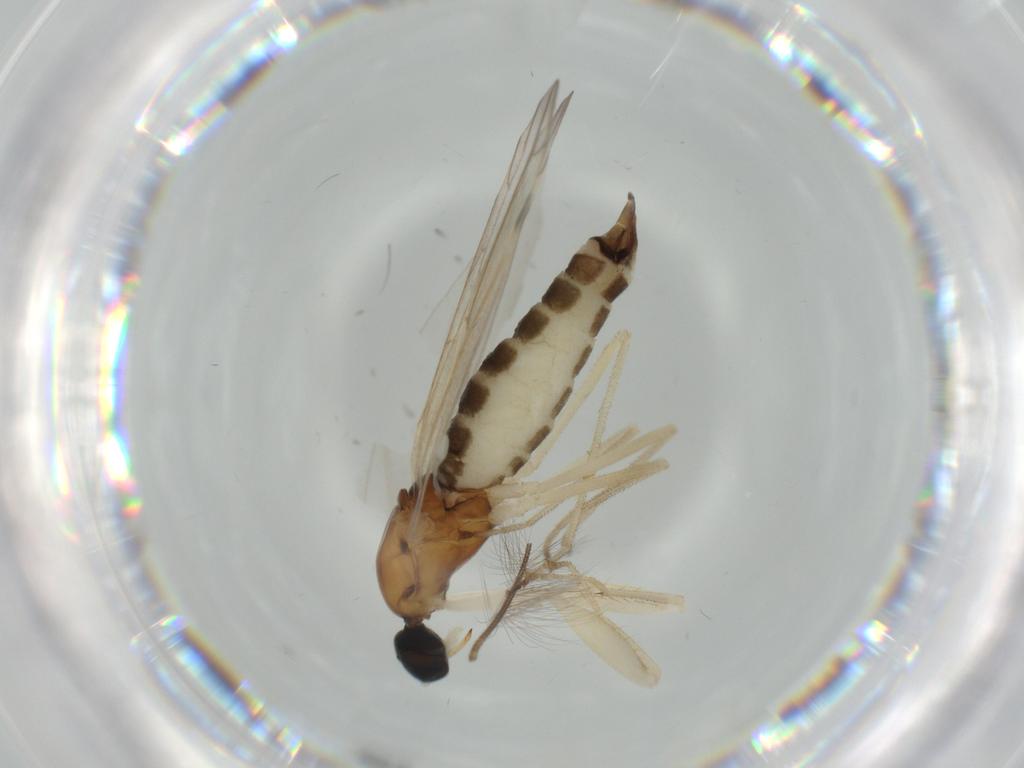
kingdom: Animalia
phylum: Arthropoda
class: Insecta
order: Diptera
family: Empididae
